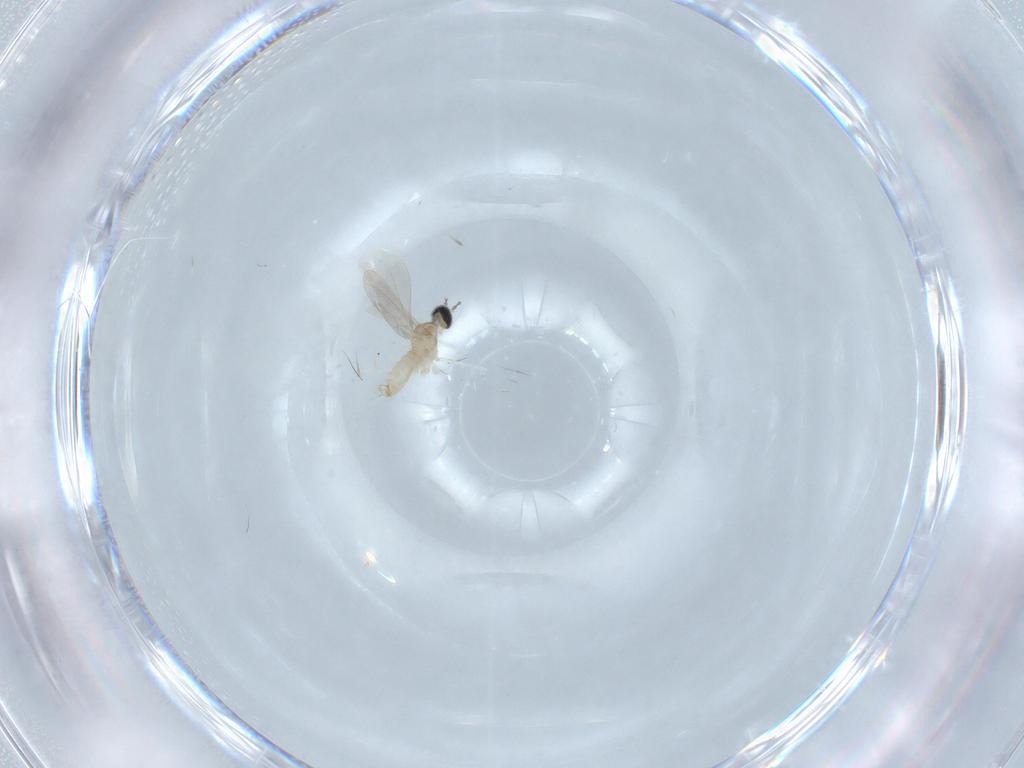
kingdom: Animalia
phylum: Arthropoda
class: Insecta
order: Diptera
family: Cecidomyiidae
